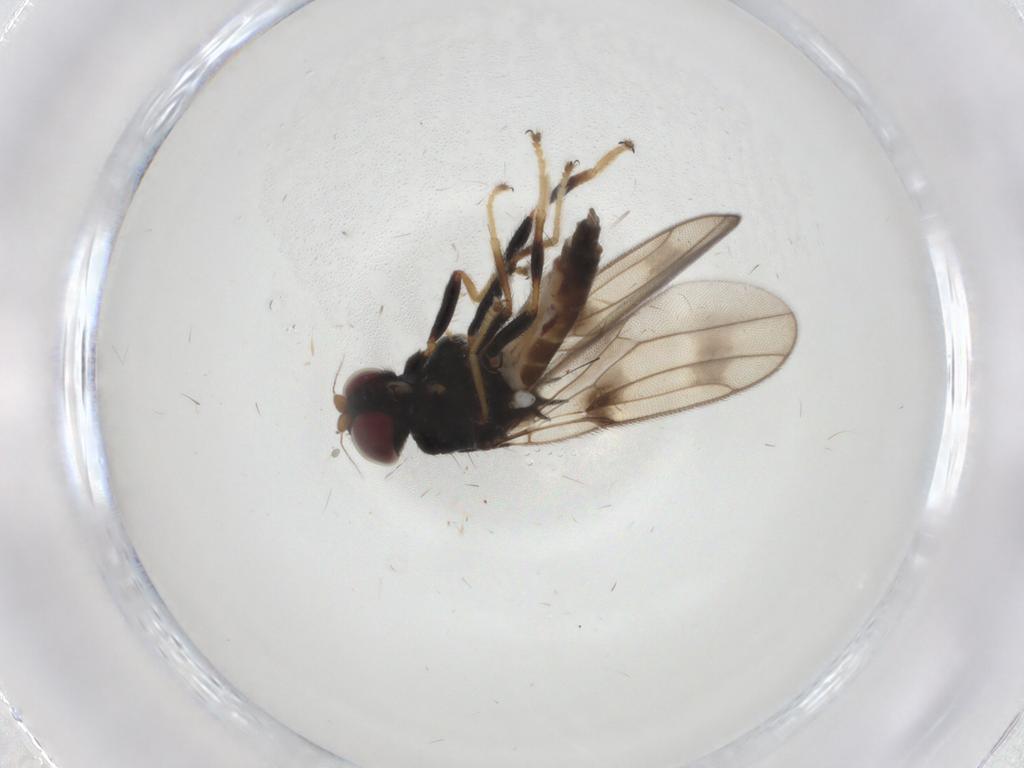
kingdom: Animalia
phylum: Arthropoda
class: Insecta
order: Diptera
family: Chloropidae
